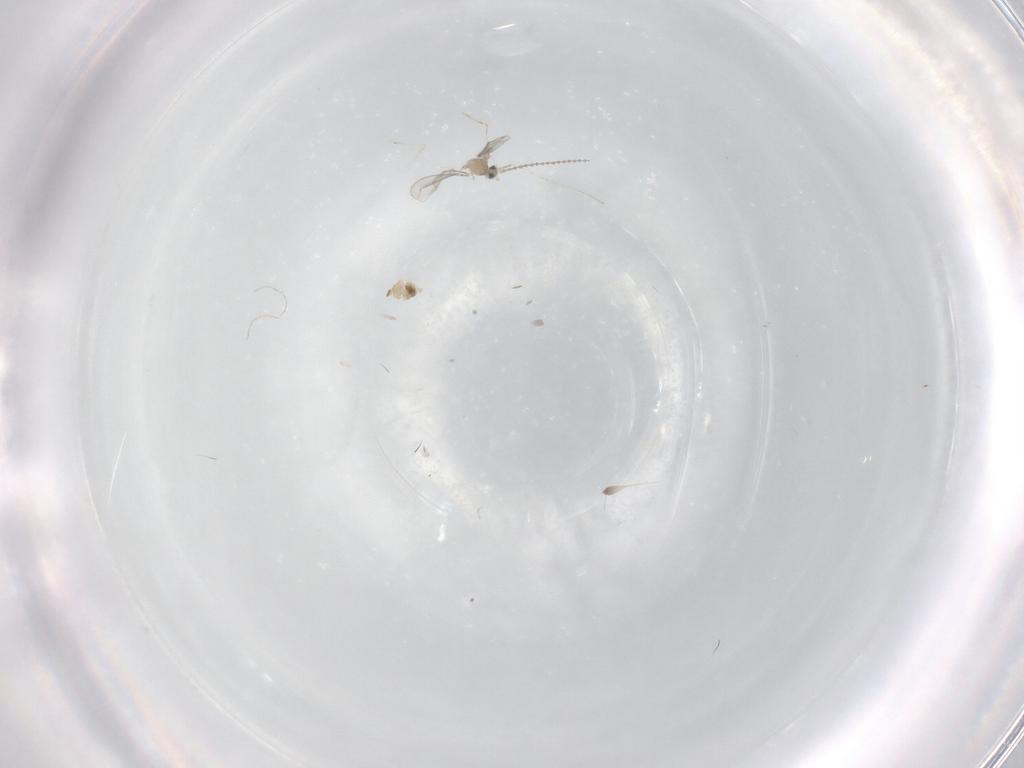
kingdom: Animalia
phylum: Arthropoda
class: Insecta
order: Diptera
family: Cecidomyiidae
